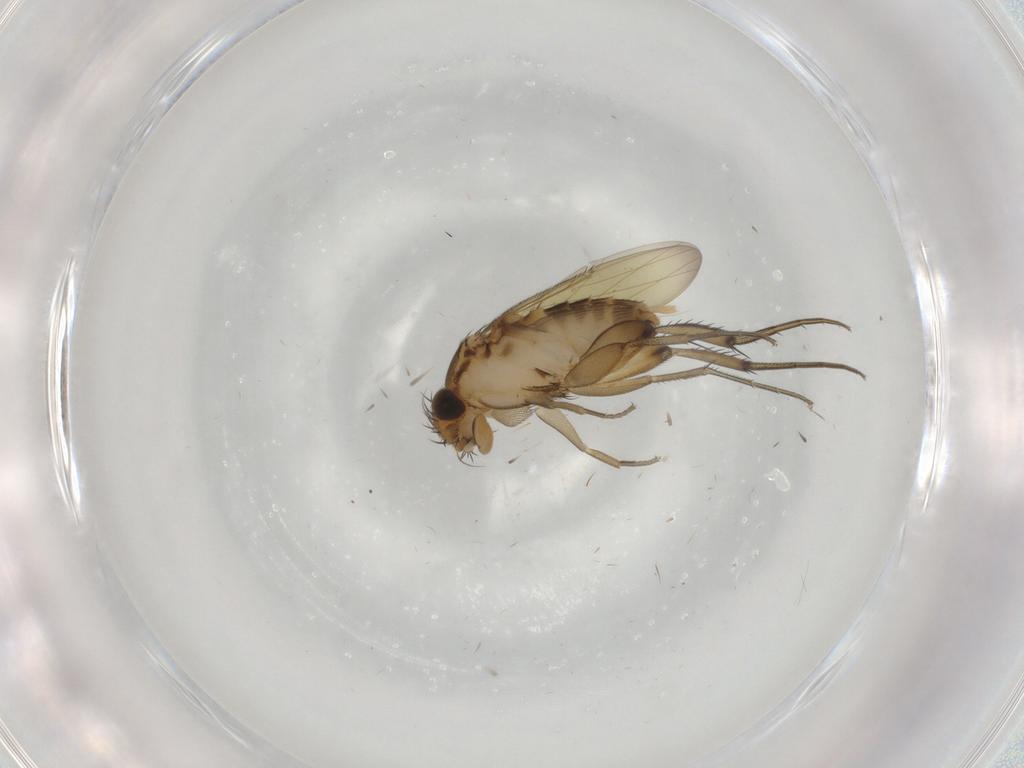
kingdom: Animalia
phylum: Arthropoda
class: Insecta
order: Diptera
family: Phoridae
